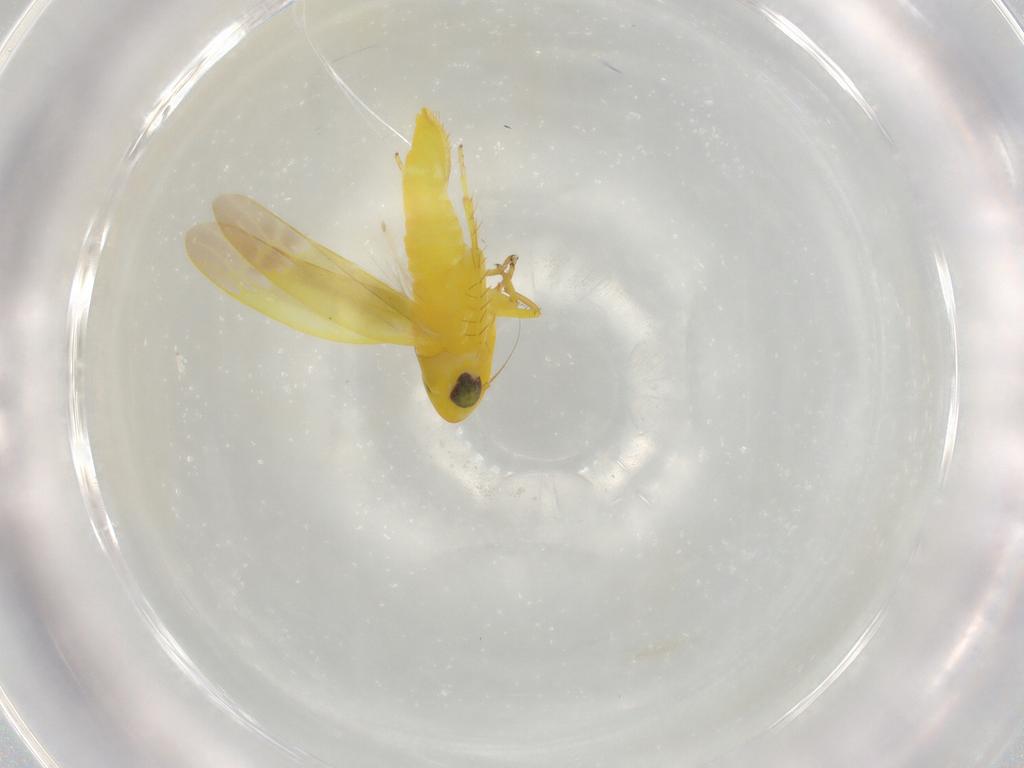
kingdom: Animalia
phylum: Arthropoda
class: Insecta
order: Hemiptera
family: Cicadellidae
